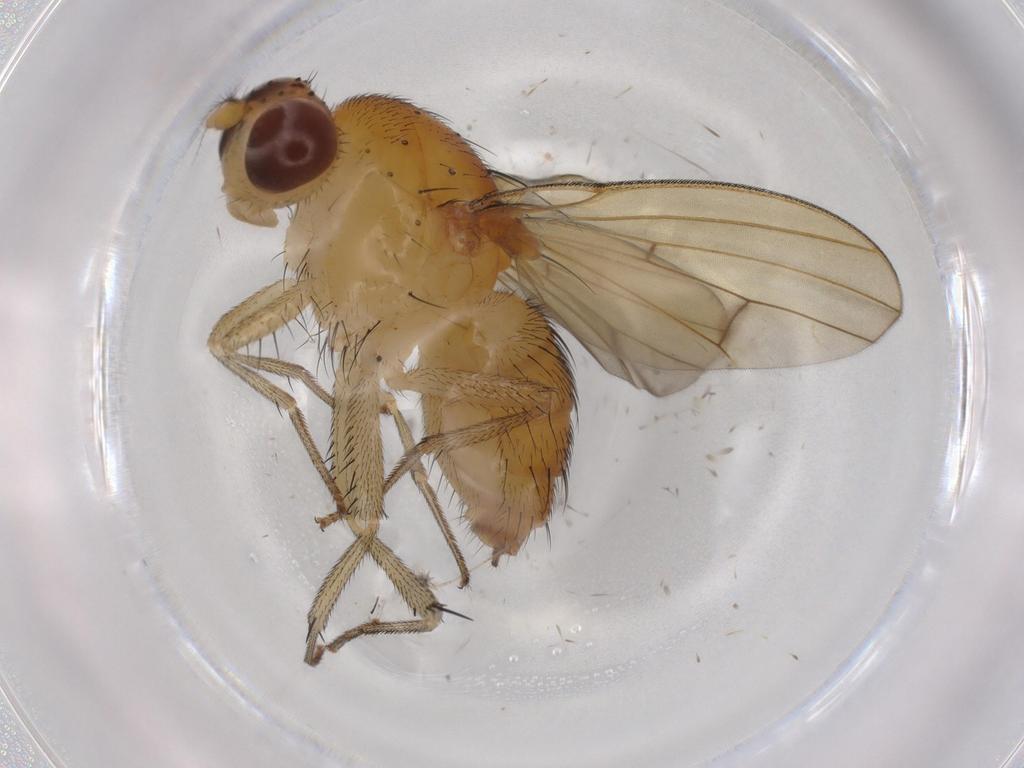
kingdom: Animalia
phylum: Arthropoda
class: Insecta
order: Diptera
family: Lauxaniidae
